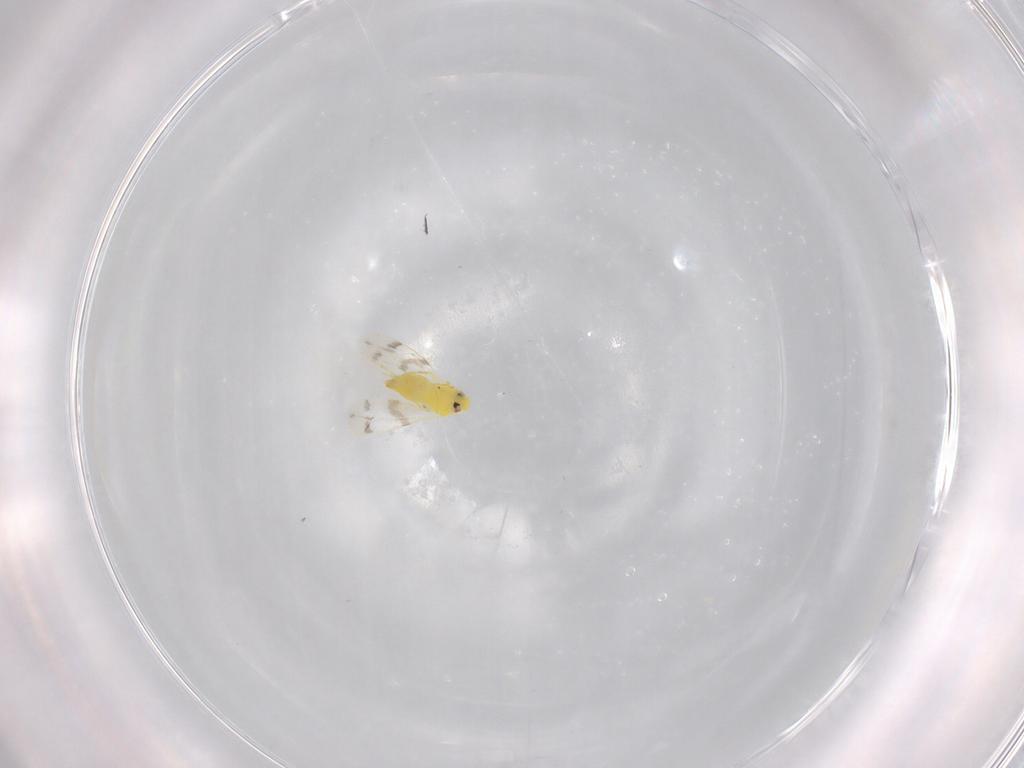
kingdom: Animalia
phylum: Arthropoda
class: Insecta
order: Hemiptera
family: Aleyrodidae
